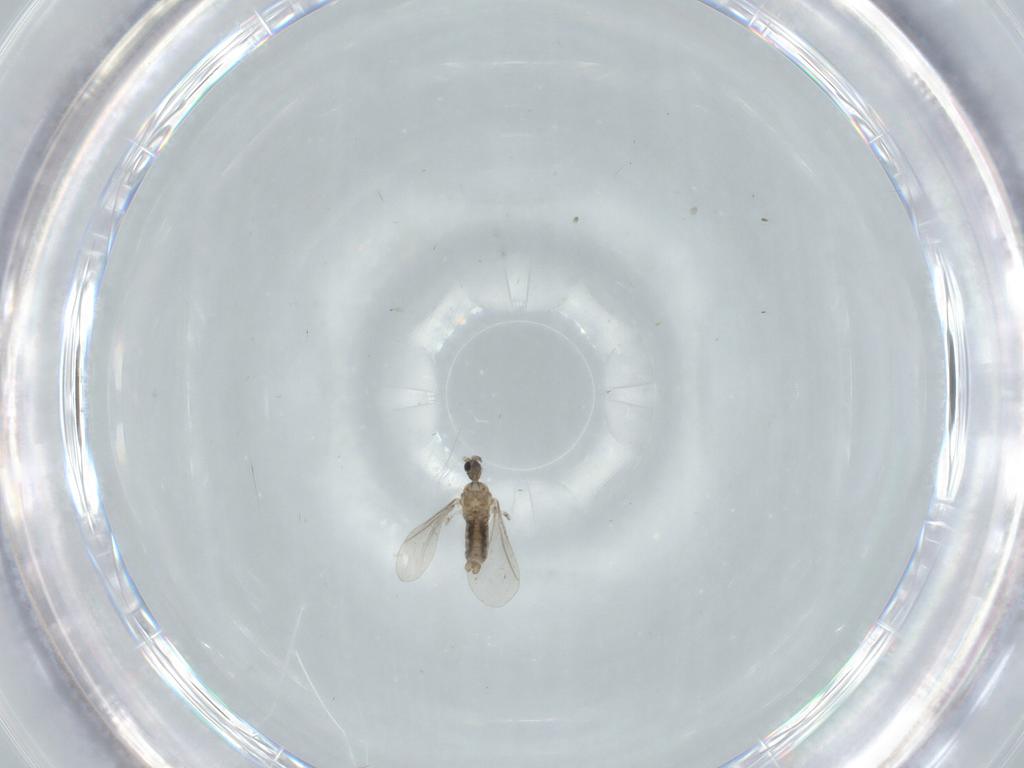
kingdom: Animalia
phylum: Arthropoda
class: Insecta
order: Diptera
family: Cecidomyiidae
